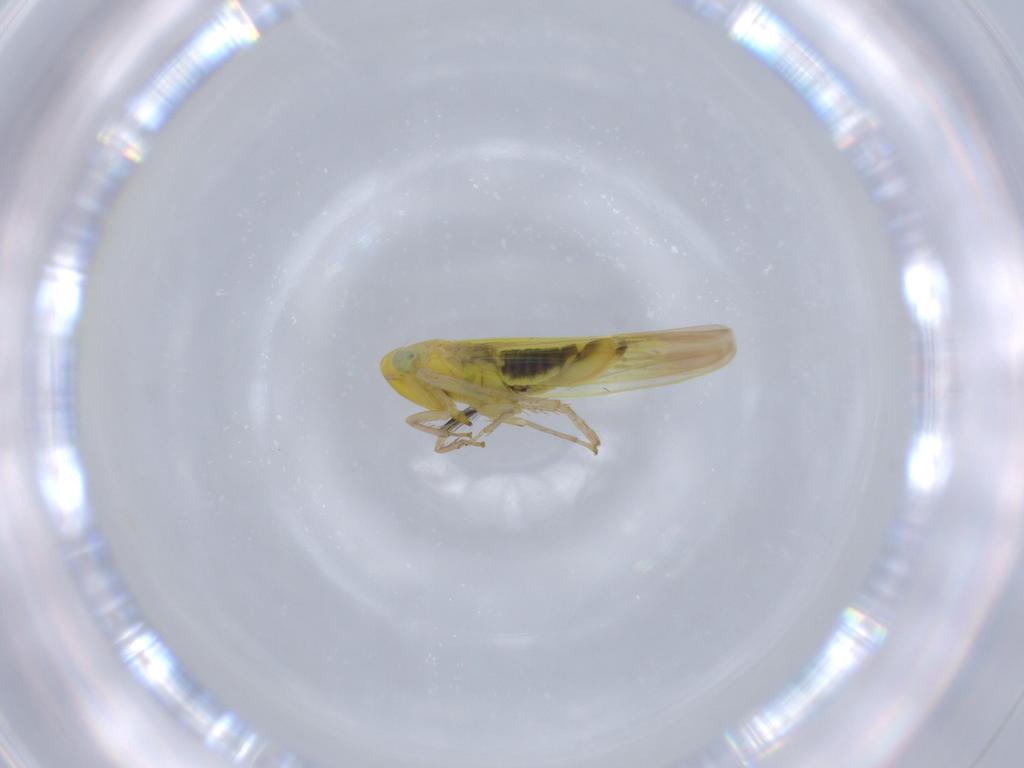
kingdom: Animalia
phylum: Arthropoda
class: Insecta
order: Hemiptera
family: Cicadellidae
